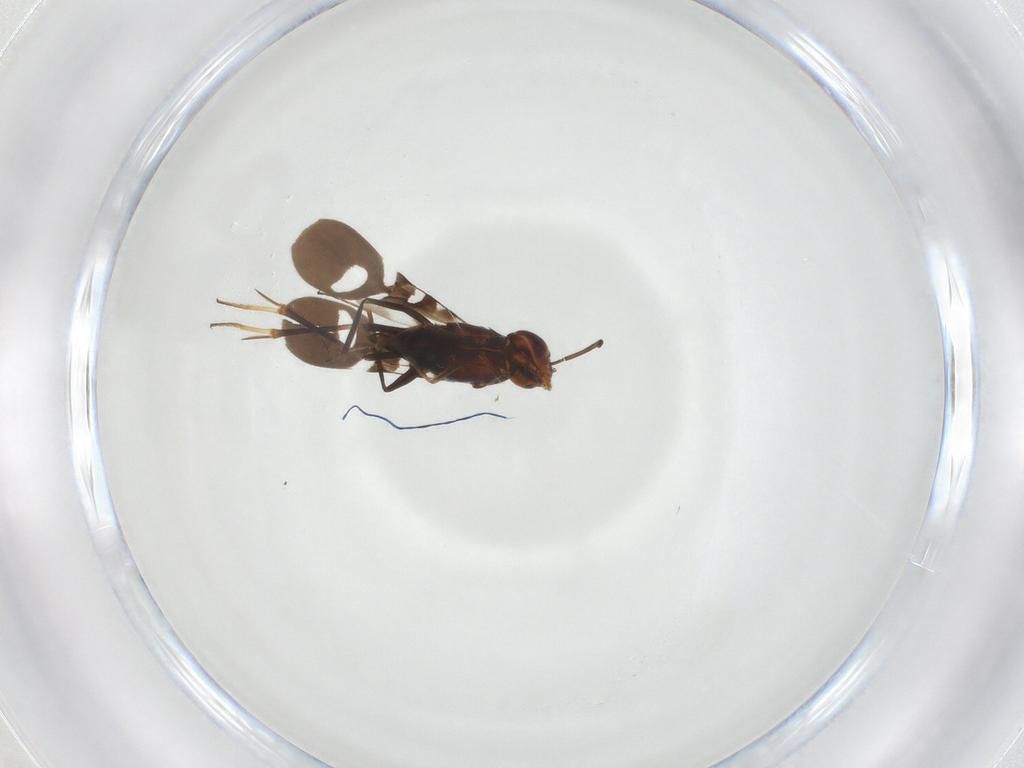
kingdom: Animalia
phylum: Arthropoda
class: Insecta
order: Hymenoptera
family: Encyrtidae
